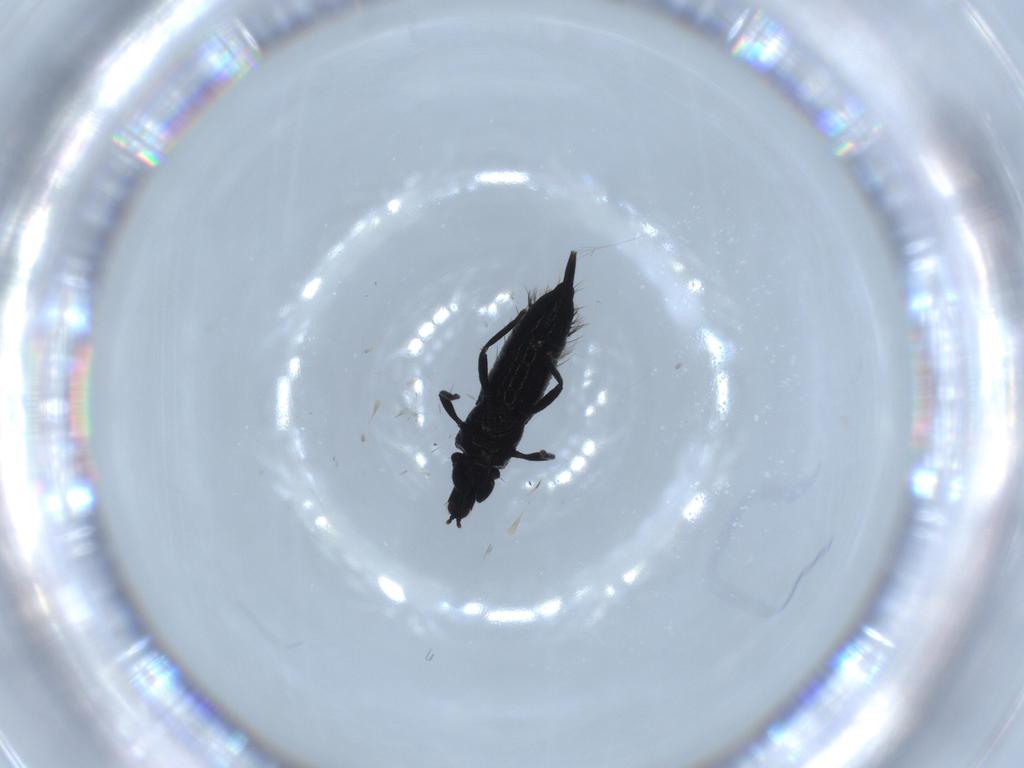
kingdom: Animalia
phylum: Arthropoda
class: Insecta
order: Thysanoptera
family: Phlaeothripidae
